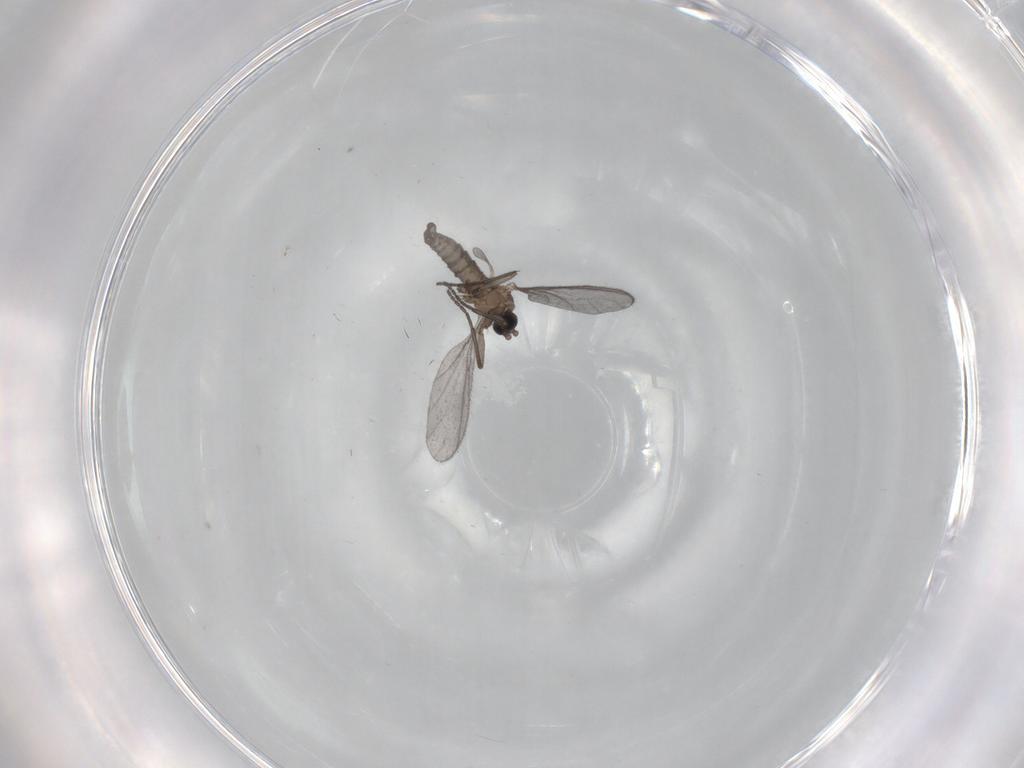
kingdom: Animalia
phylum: Arthropoda
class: Insecta
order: Diptera
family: Sciaridae
